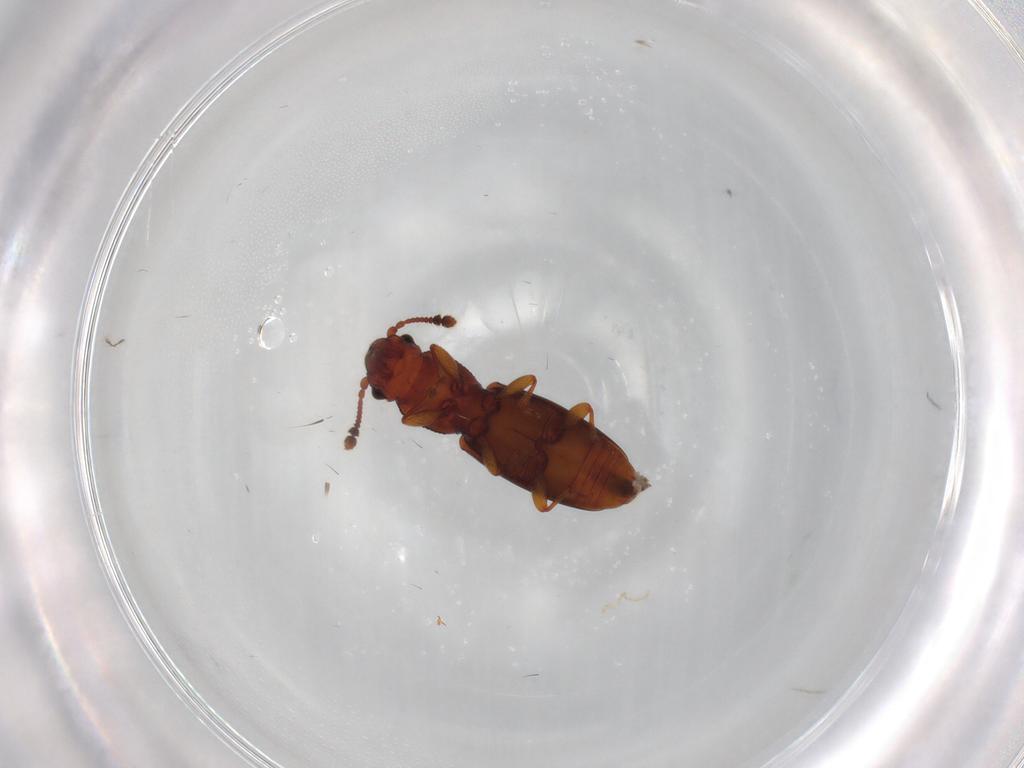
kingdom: Animalia
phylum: Arthropoda
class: Insecta
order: Coleoptera
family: Monotomidae
